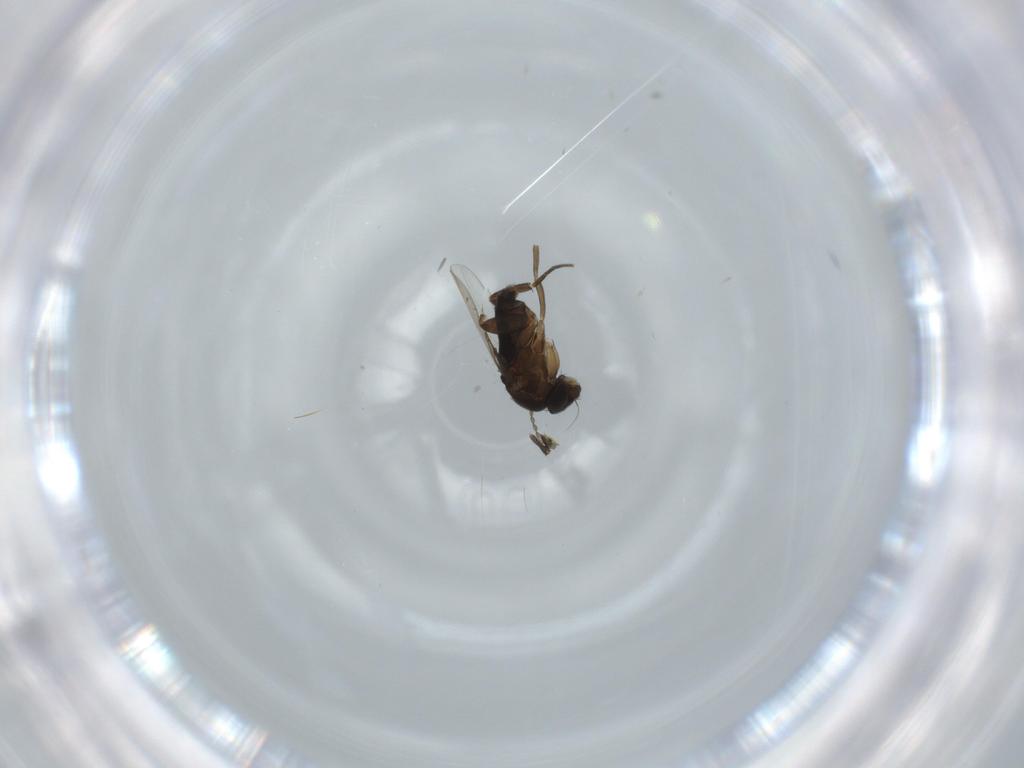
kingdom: Animalia
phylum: Arthropoda
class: Insecta
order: Diptera
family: Phoridae
